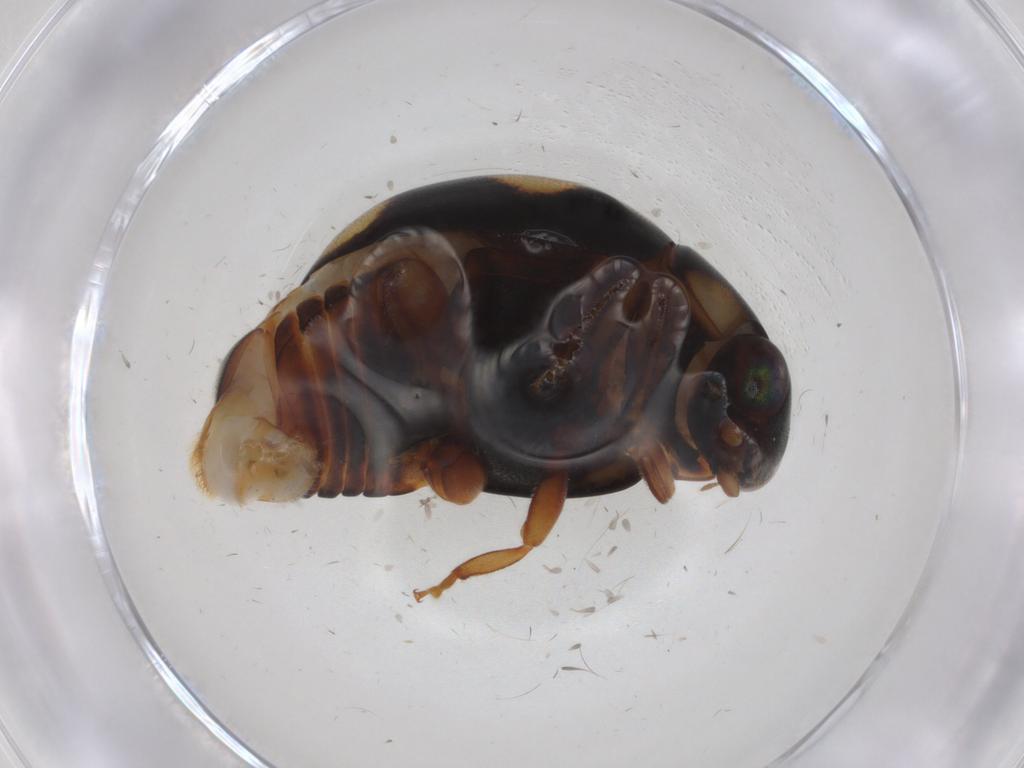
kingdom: Animalia
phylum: Arthropoda
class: Insecta
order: Coleoptera
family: Coccinellidae
